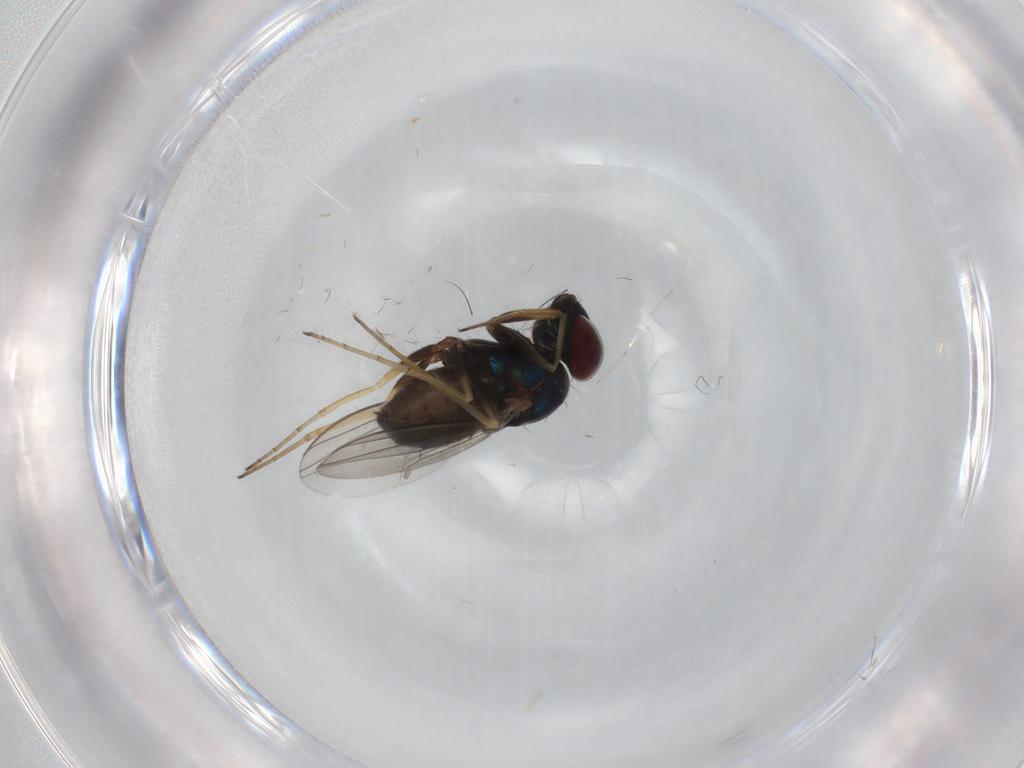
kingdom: Animalia
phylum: Arthropoda
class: Insecta
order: Diptera
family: Dolichopodidae
